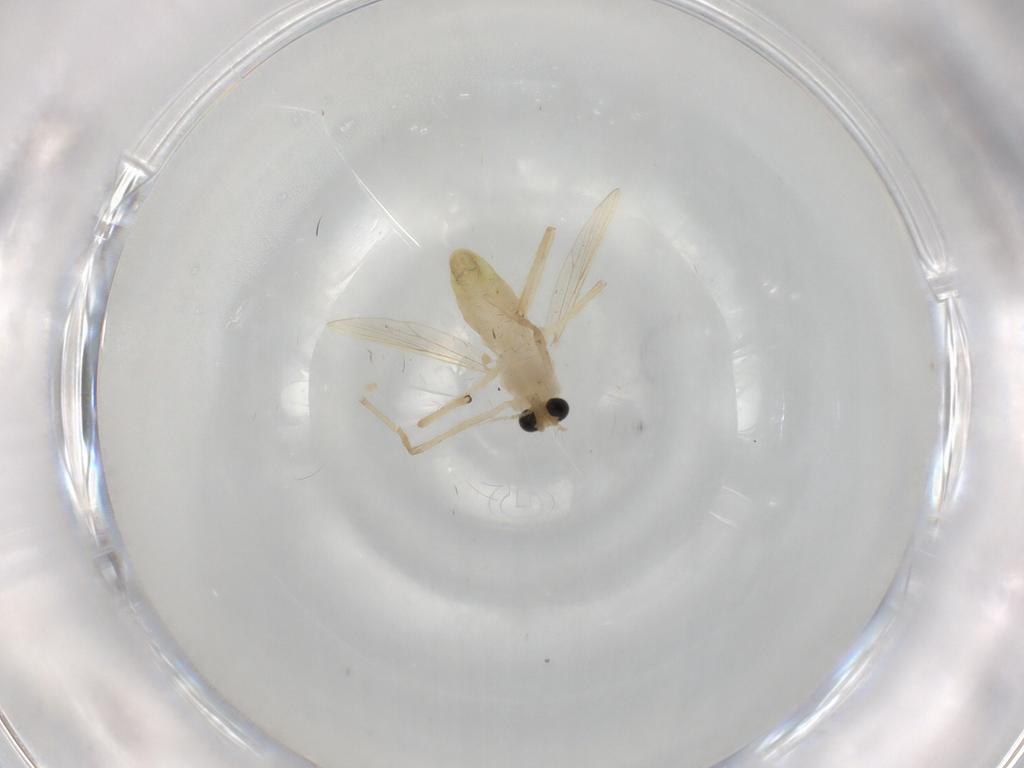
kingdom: Animalia
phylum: Arthropoda
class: Insecta
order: Diptera
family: Chironomidae
